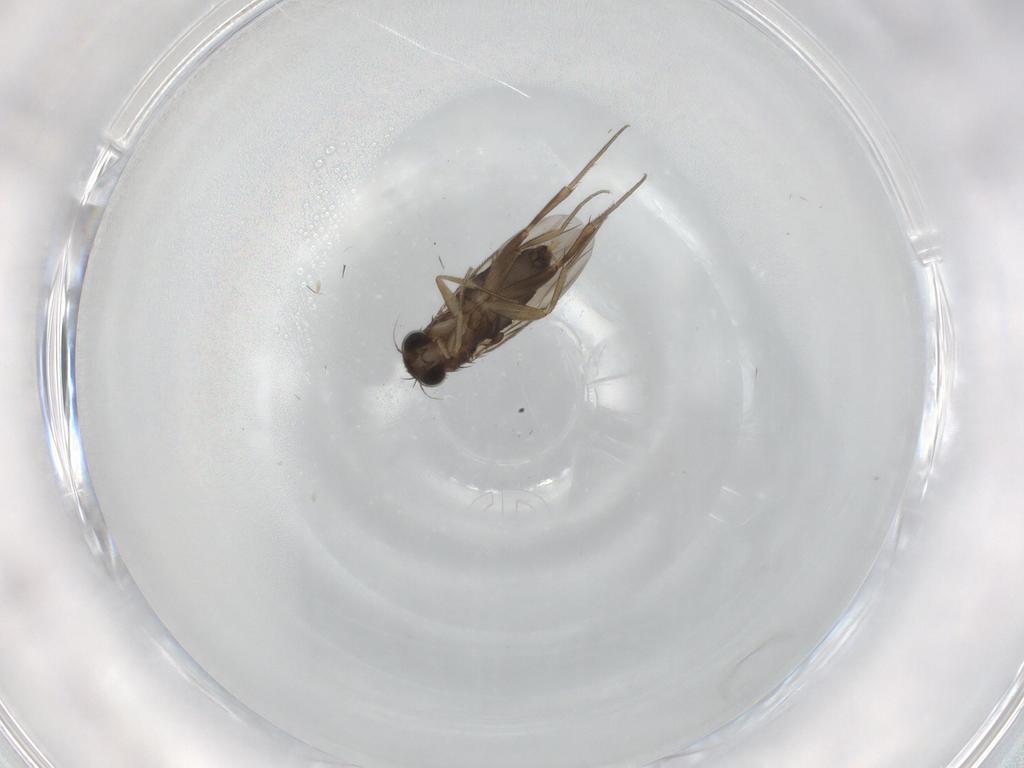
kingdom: Animalia
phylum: Arthropoda
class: Insecta
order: Diptera
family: Phoridae
